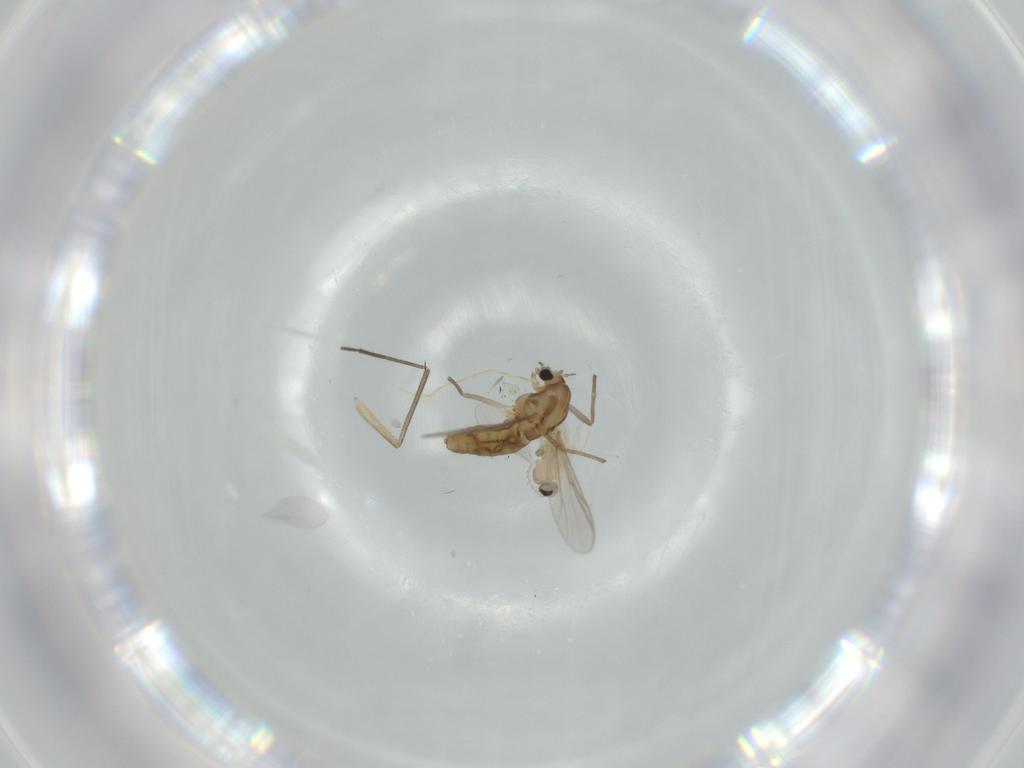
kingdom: Animalia
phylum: Arthropoda
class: Insecta
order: Diptera
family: Chironomidae
